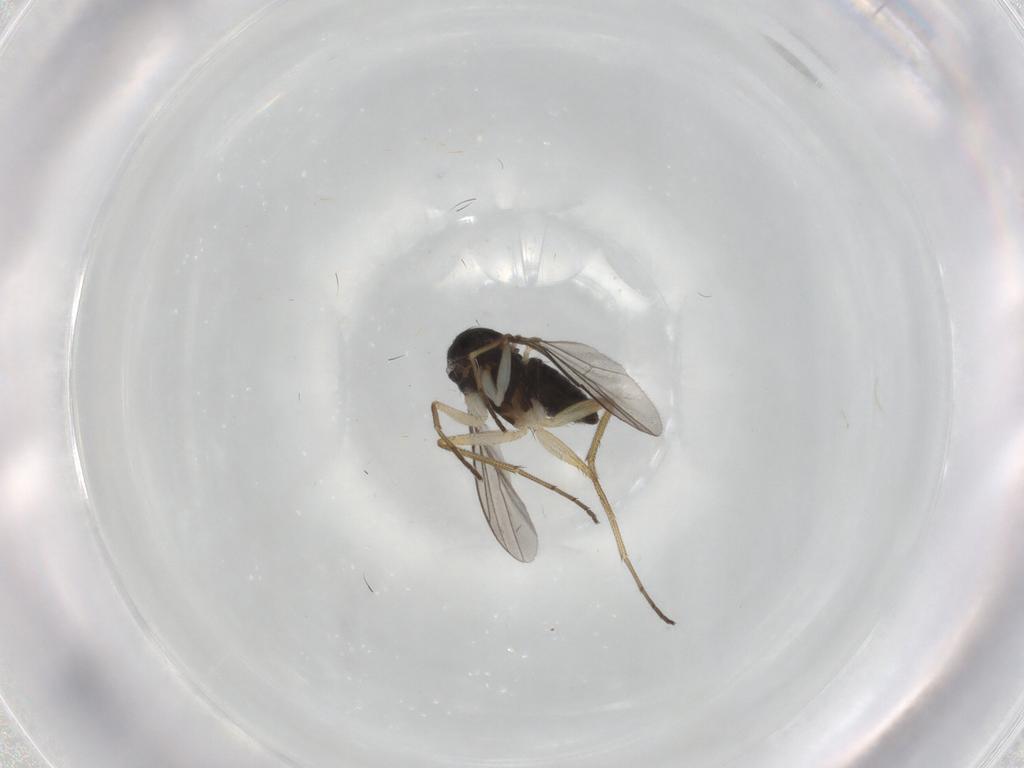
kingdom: Animalia
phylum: Arthropoda
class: Insecta
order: Diptera
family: Dolichopodidae
